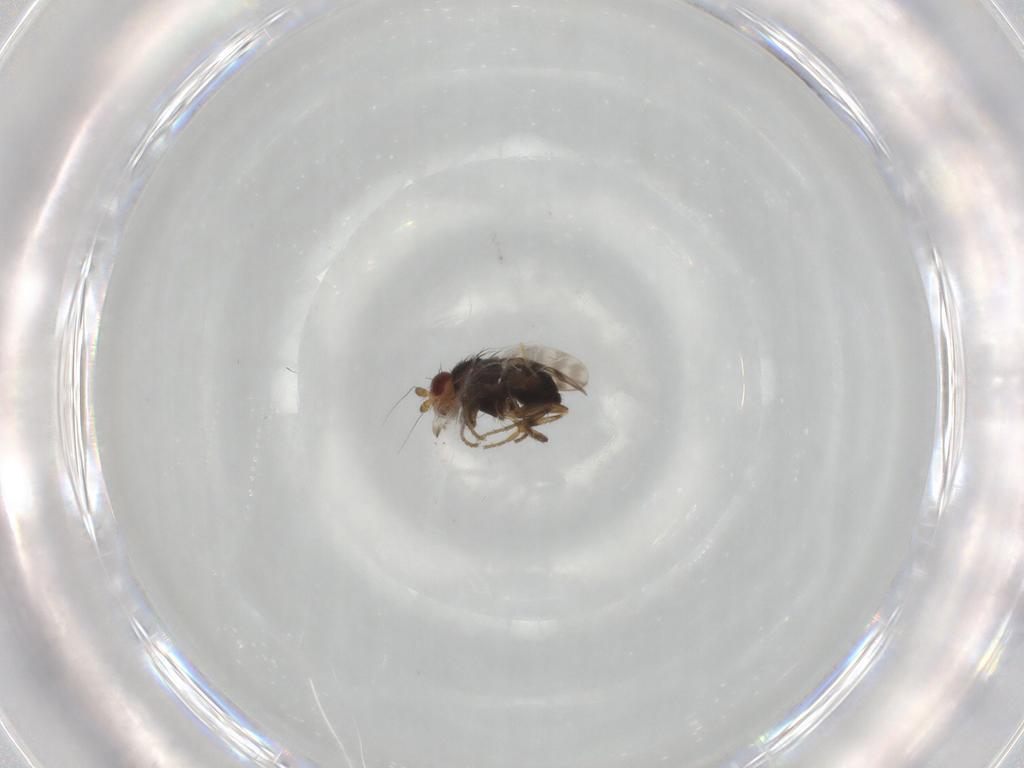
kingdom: Animalia
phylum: Arthropoda
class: Insecta
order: Diptera
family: Sphaeroceridae
